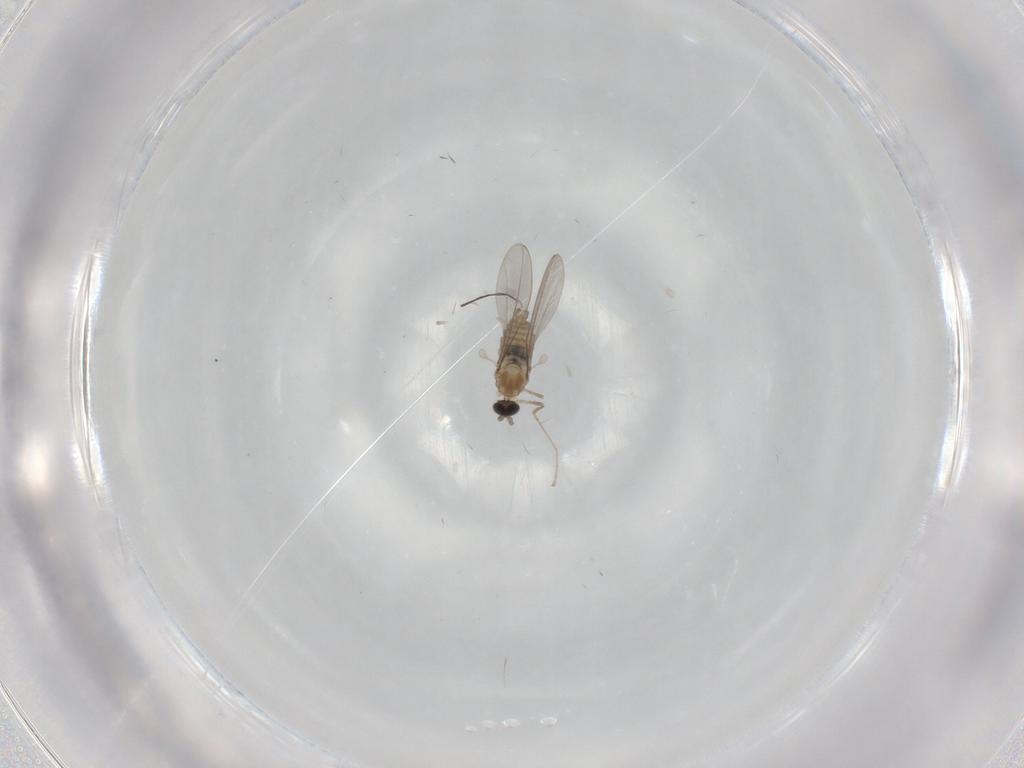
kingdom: Animalia
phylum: Arthropoda
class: Insecta
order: Diptera
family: Cecidomyiidae
